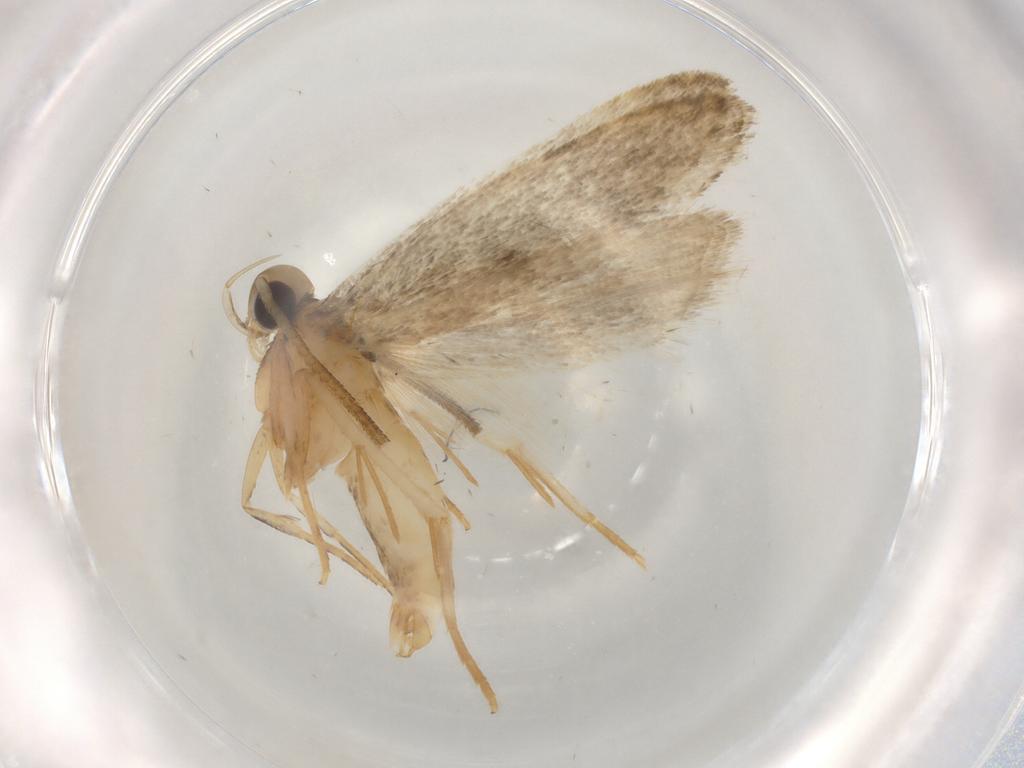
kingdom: Animalia
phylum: Arthropoda
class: Insecta
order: Lepidoptera
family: Autostichidae
